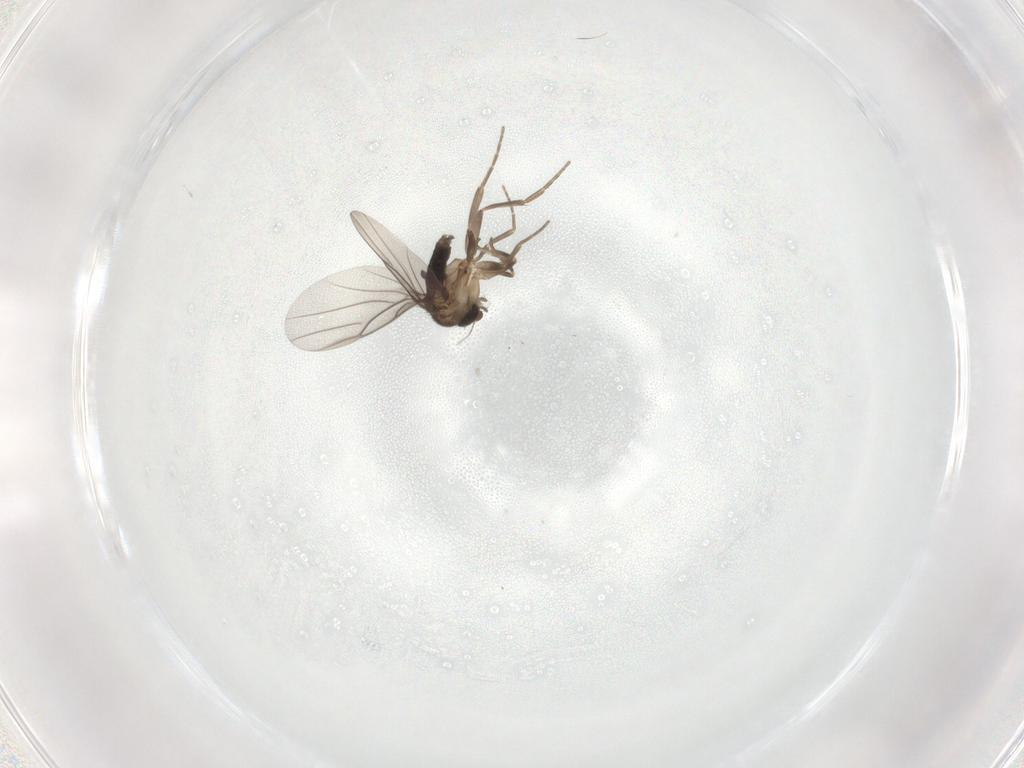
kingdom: Animalia
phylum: Arthropoda
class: Insecta
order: Diptera
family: Phoridae
